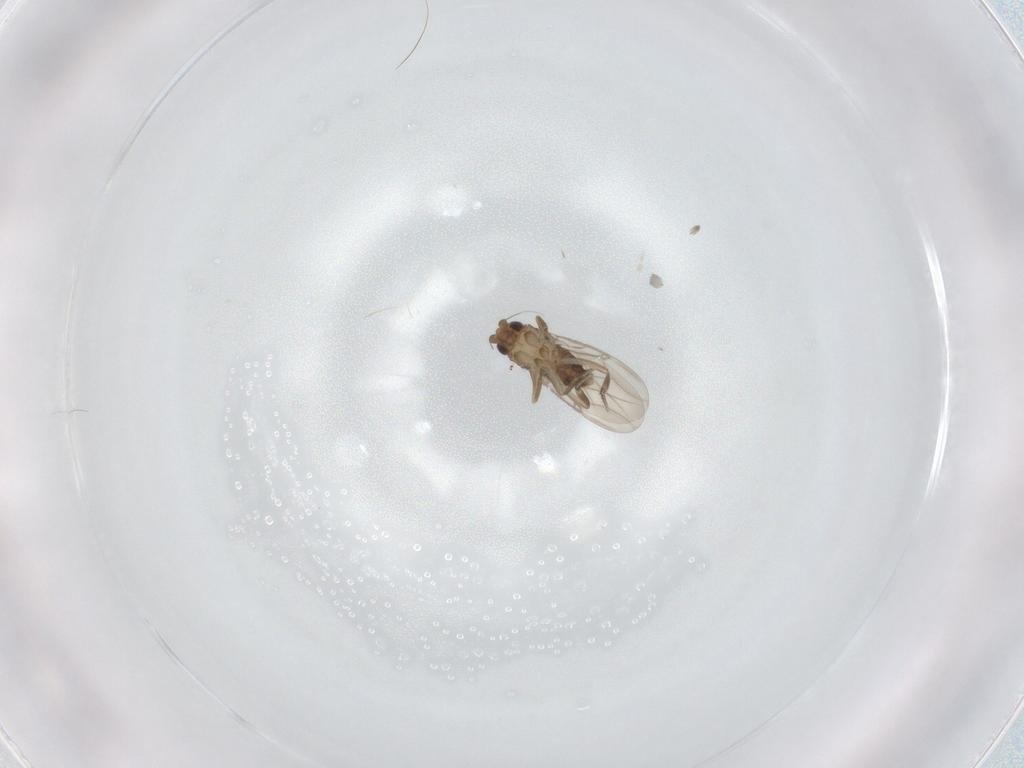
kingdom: Animalia
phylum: Arthropoda
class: Insecta
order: Diptera
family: Phoridae
